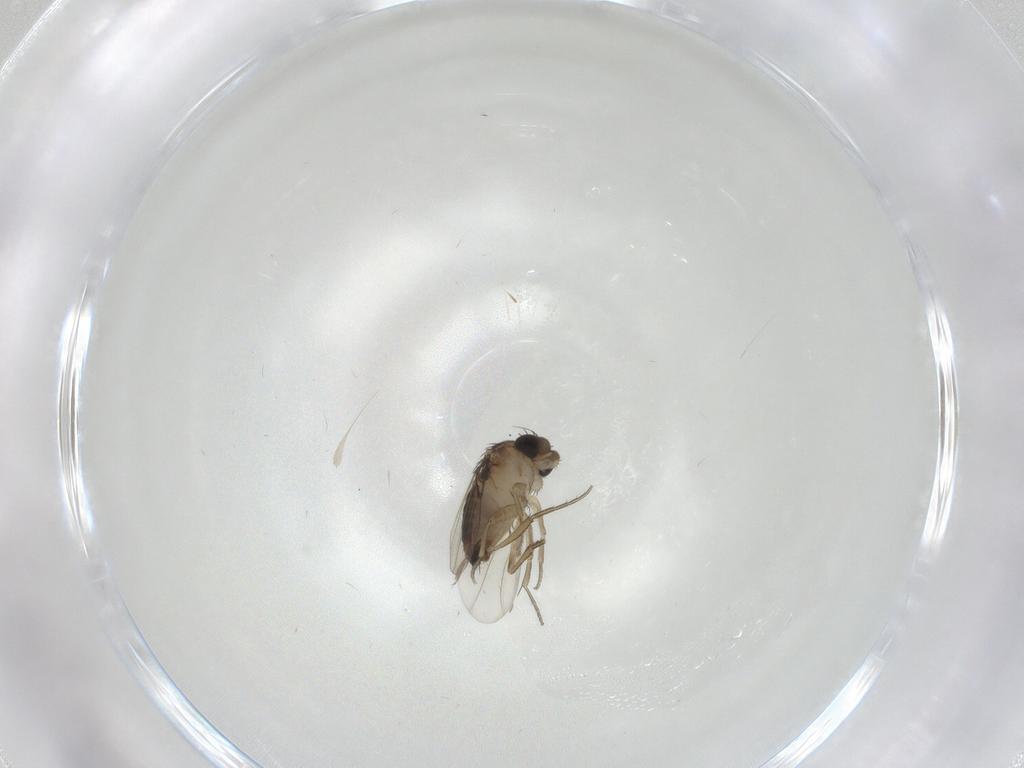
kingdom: Animalia
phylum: Arthropoda
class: Insecta
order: Diptera
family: Cecidomyiidae
